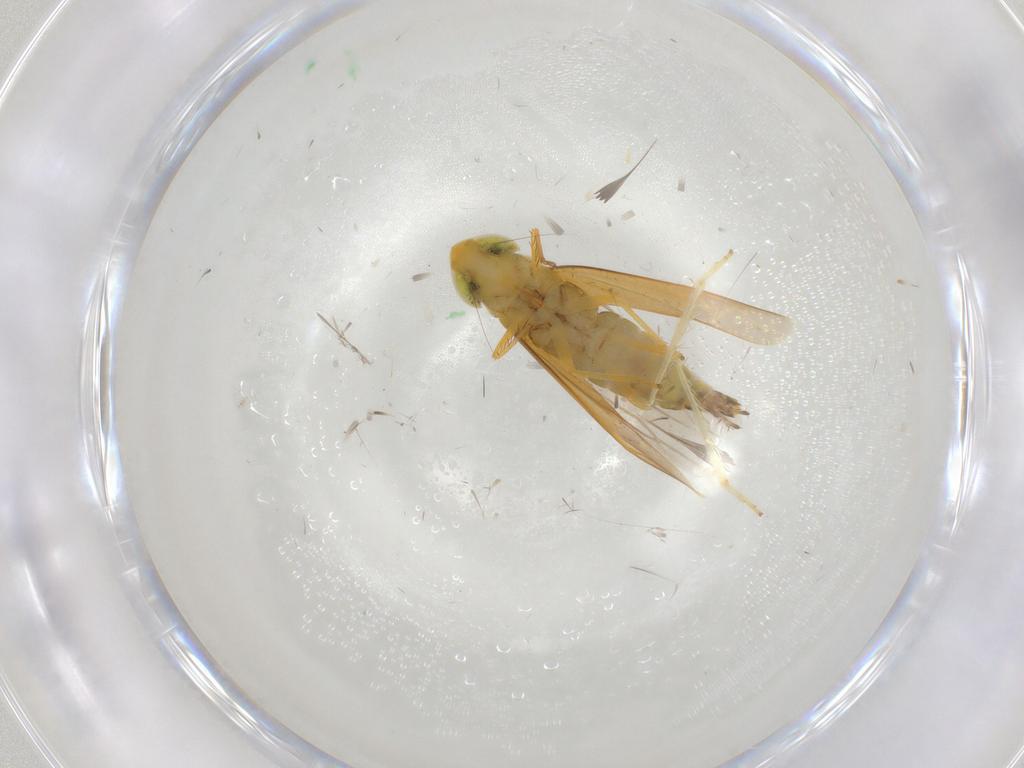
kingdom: Animalia
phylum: Arthropoda
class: Insecta
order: Hemiptera
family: Cicadellidae
